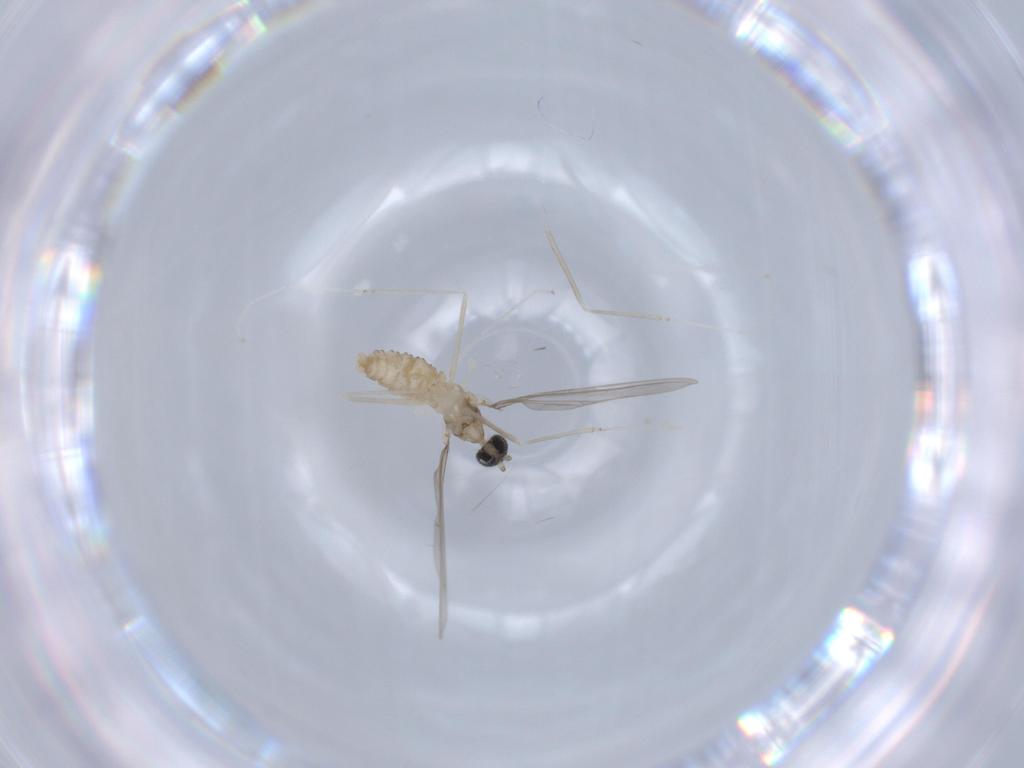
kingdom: Animalia
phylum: Arthropoda
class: Insecta
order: Diptera
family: Cecidomyiidae
